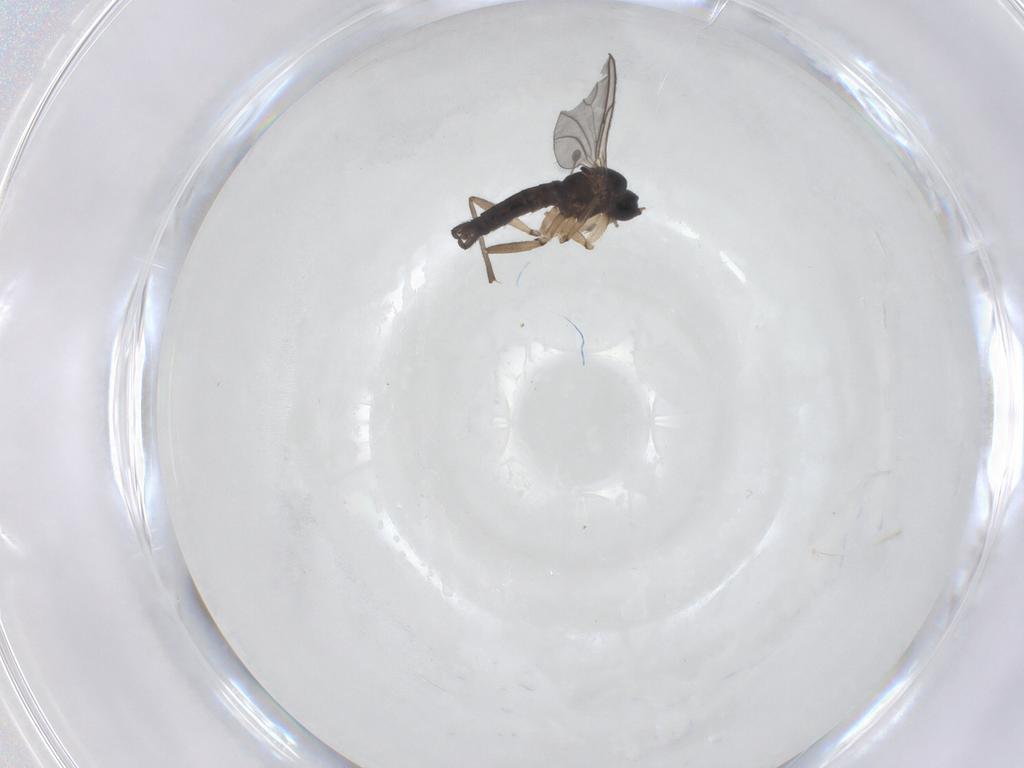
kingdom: Animalia
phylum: Arthropoda
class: Insecta
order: Diptera
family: Sciaridae
